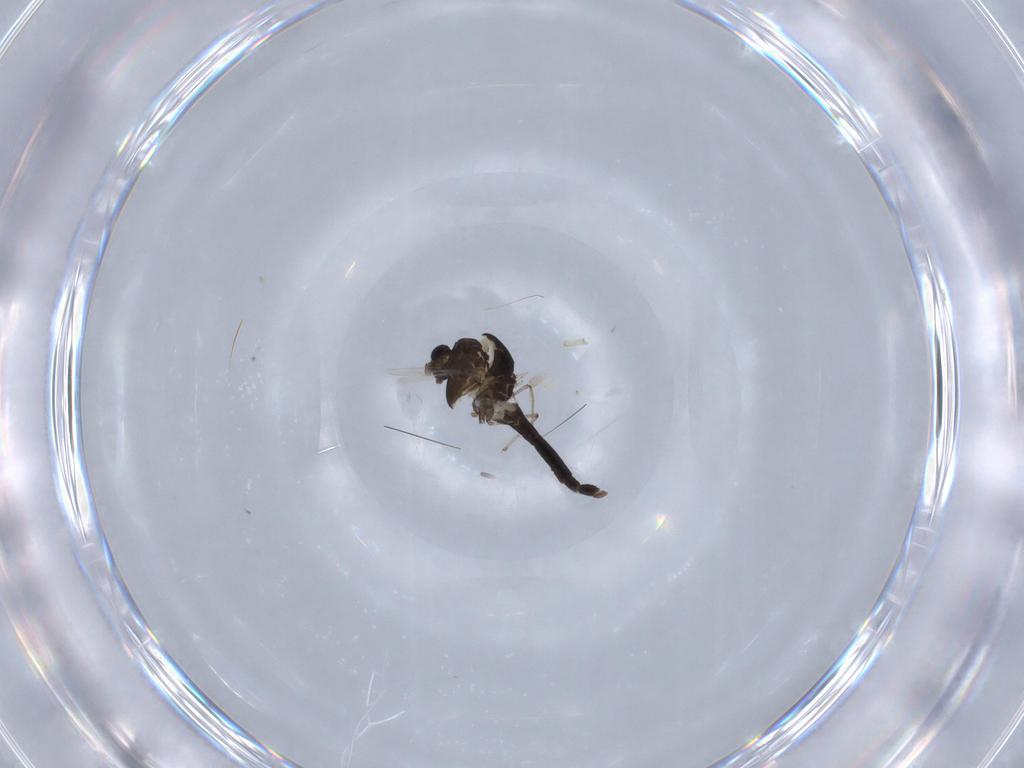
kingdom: Animalia
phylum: Arthropoda
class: Insecta
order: Diptera
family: Chironomidae
